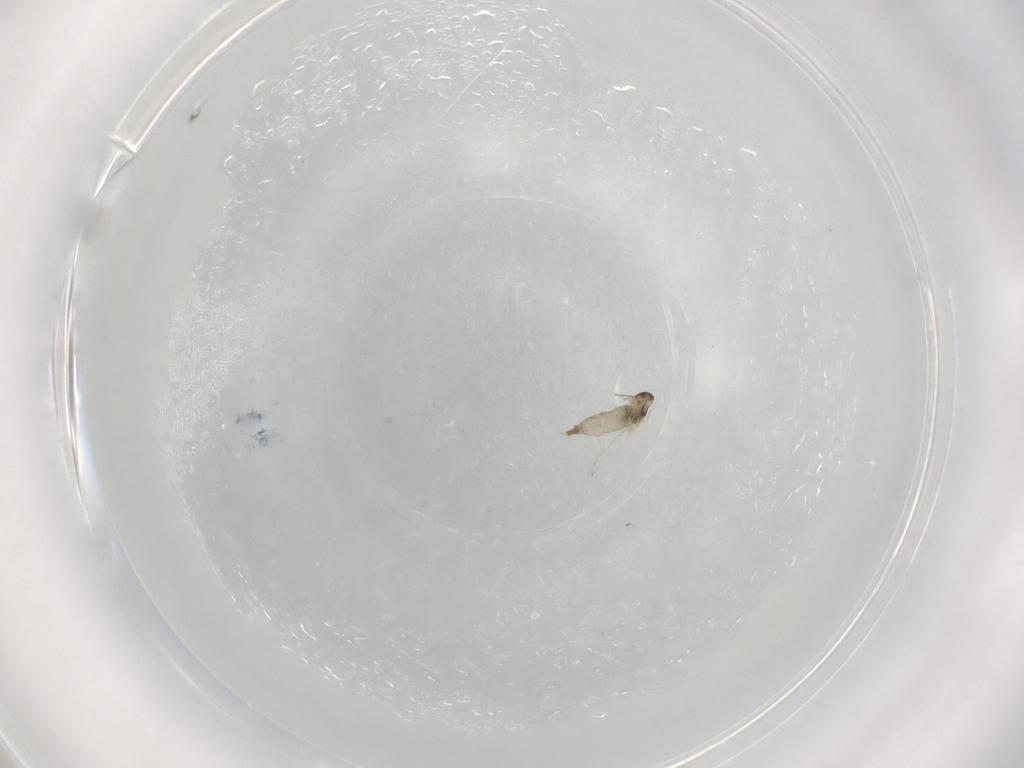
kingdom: Animalia
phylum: Arthropoda
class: Insecta
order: Diptera
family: Cecidomyiidae
